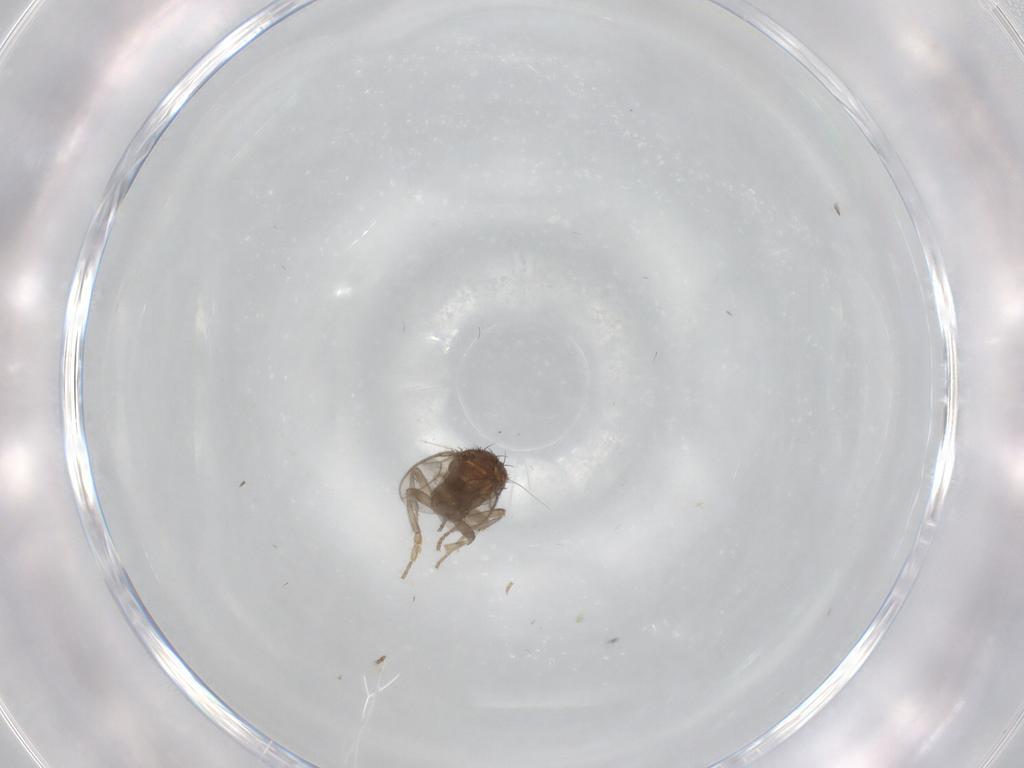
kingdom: Animalia
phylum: Arthropoda
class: Insecta
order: Diptera
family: Sphaeroceridae
